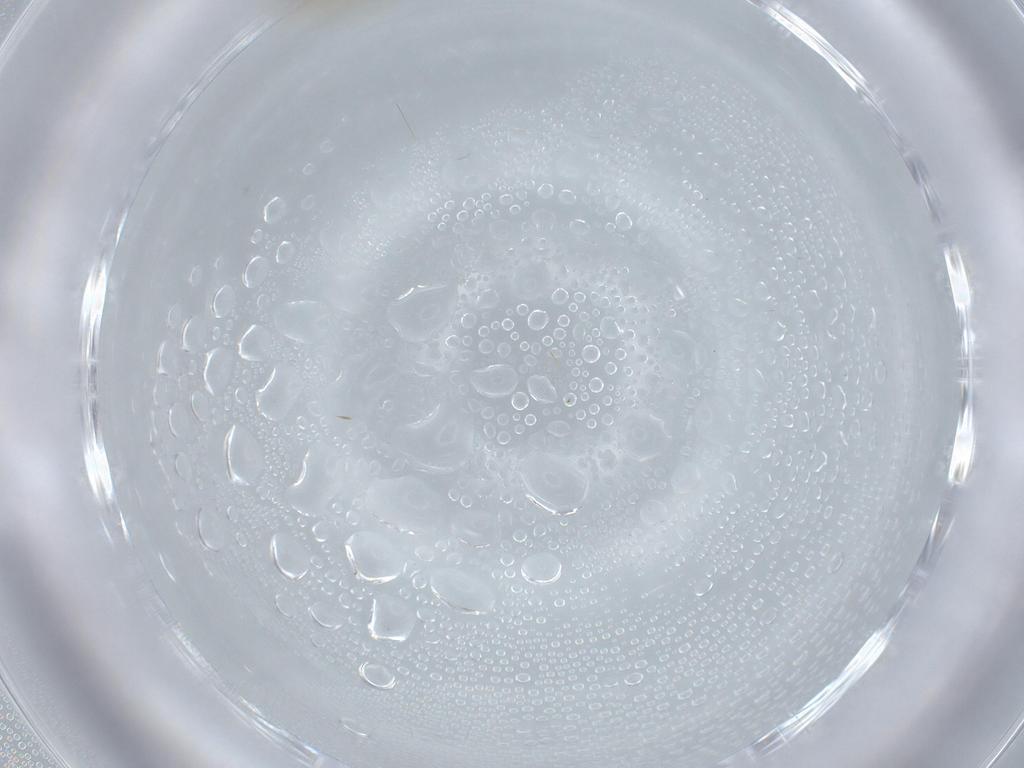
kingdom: Animalia
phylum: Arthropoda
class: Insecta
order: Diptera
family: Cecidomyiidae
